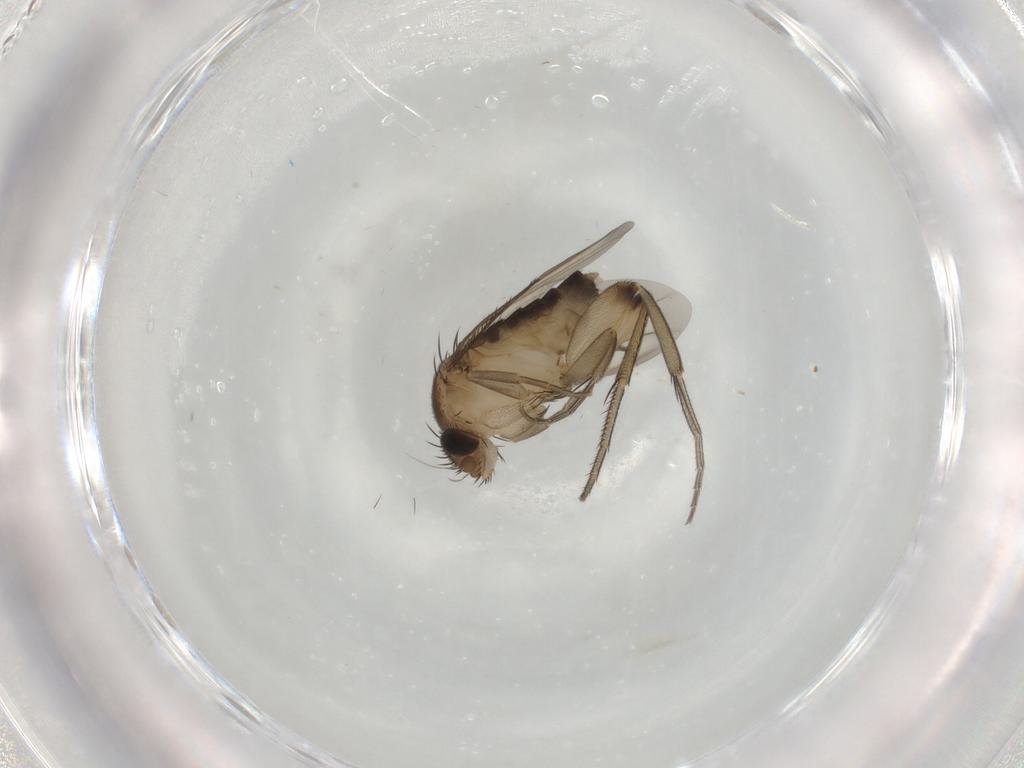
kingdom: Animalia
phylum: Arthropoda
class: Insecta
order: Diptera
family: Phoridae
